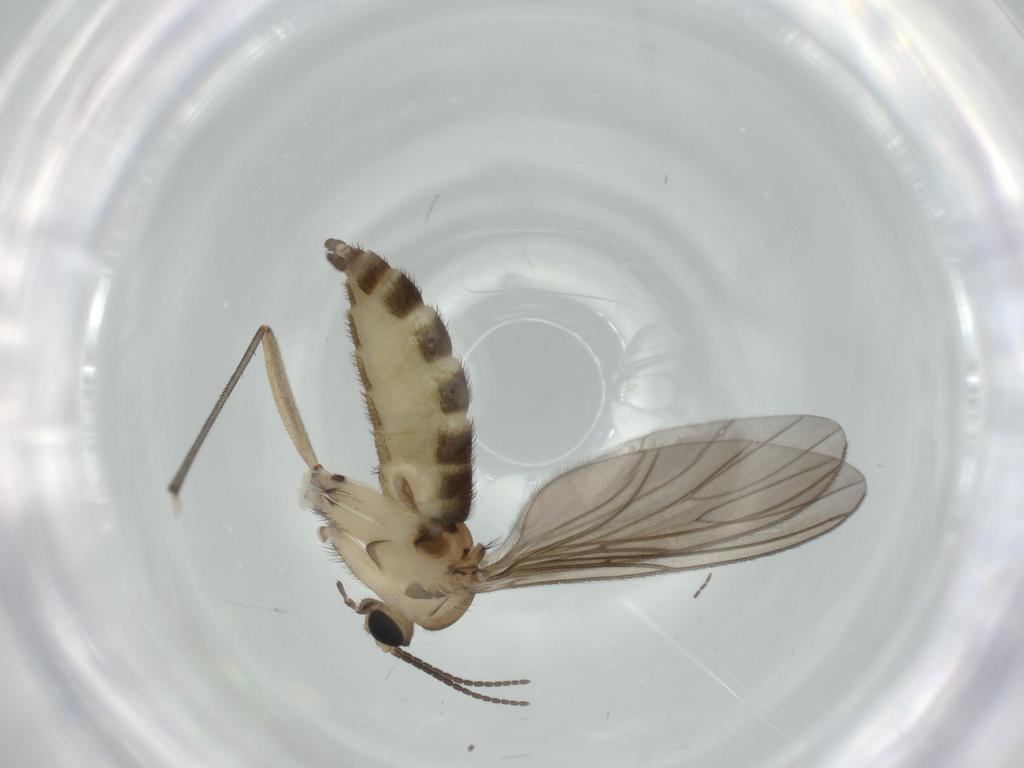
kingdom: Animalia
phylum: Arthropoda
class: Insecta
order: Diptera
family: Sciaridae
